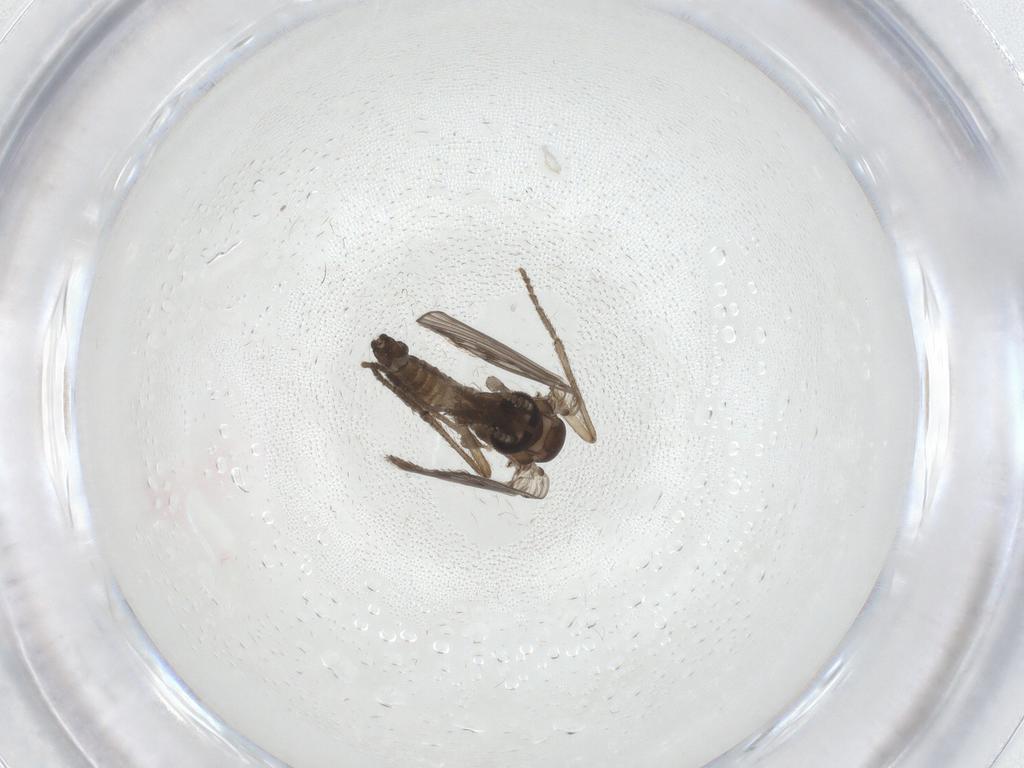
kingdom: Animalia
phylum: Arthropoda
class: Insecta
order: Diptera
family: Psychodidae
